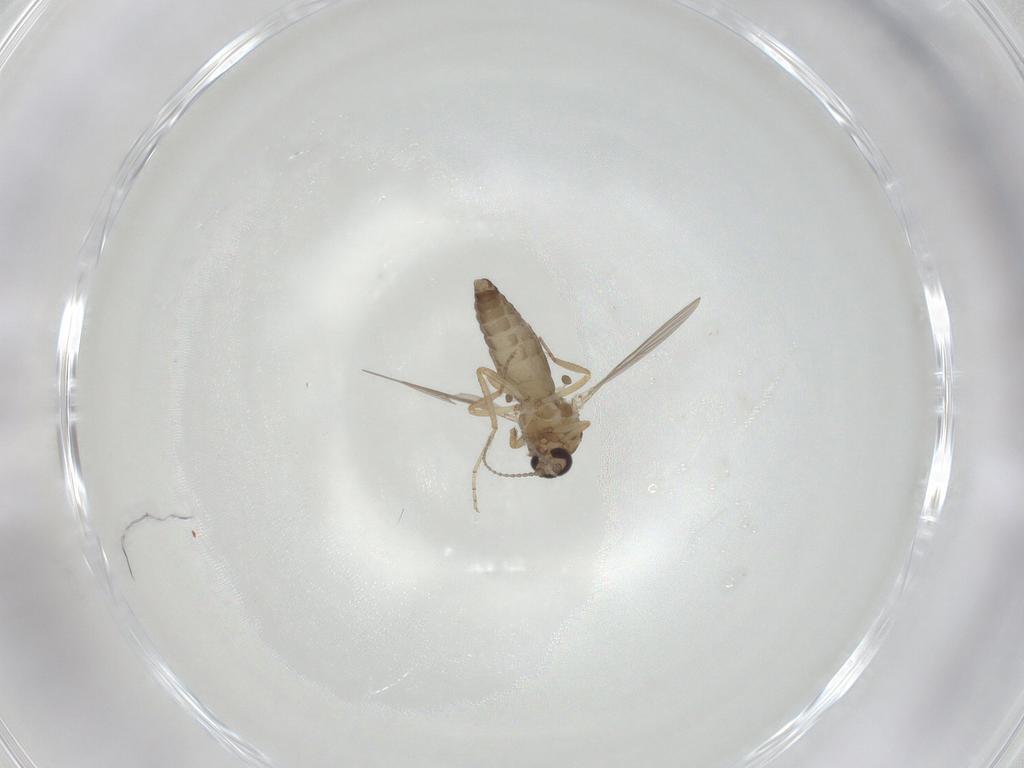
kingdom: Animalia
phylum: Arthropoda
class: Insecta
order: Diptera
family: Ceratopogonidae
